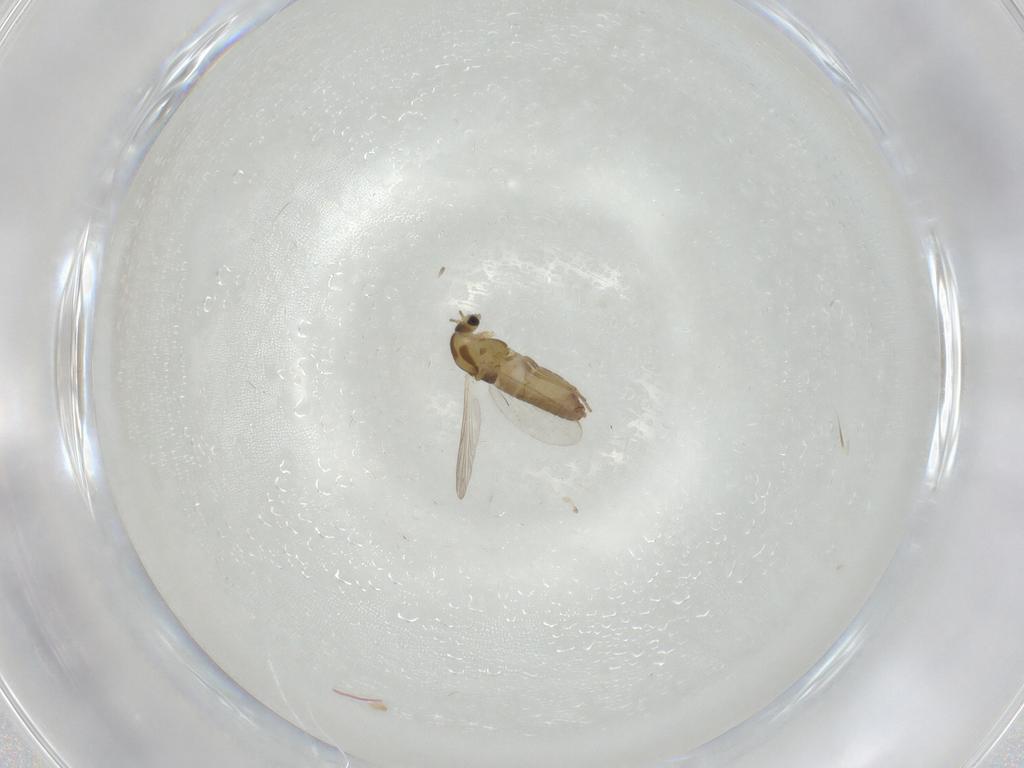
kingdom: Animalia
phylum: Arthropoda
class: Insecta
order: Diptera
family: Chironomidae
